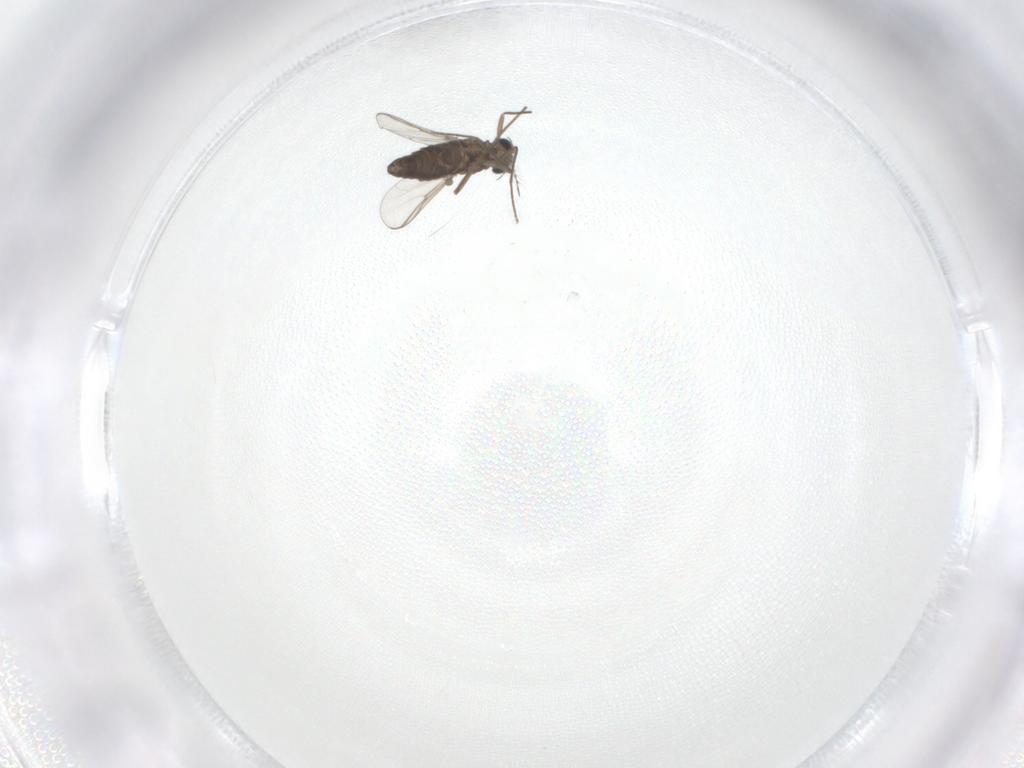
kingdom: Animalia
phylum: Arthropoda
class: Insecta
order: Diptera
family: Chironomidae
